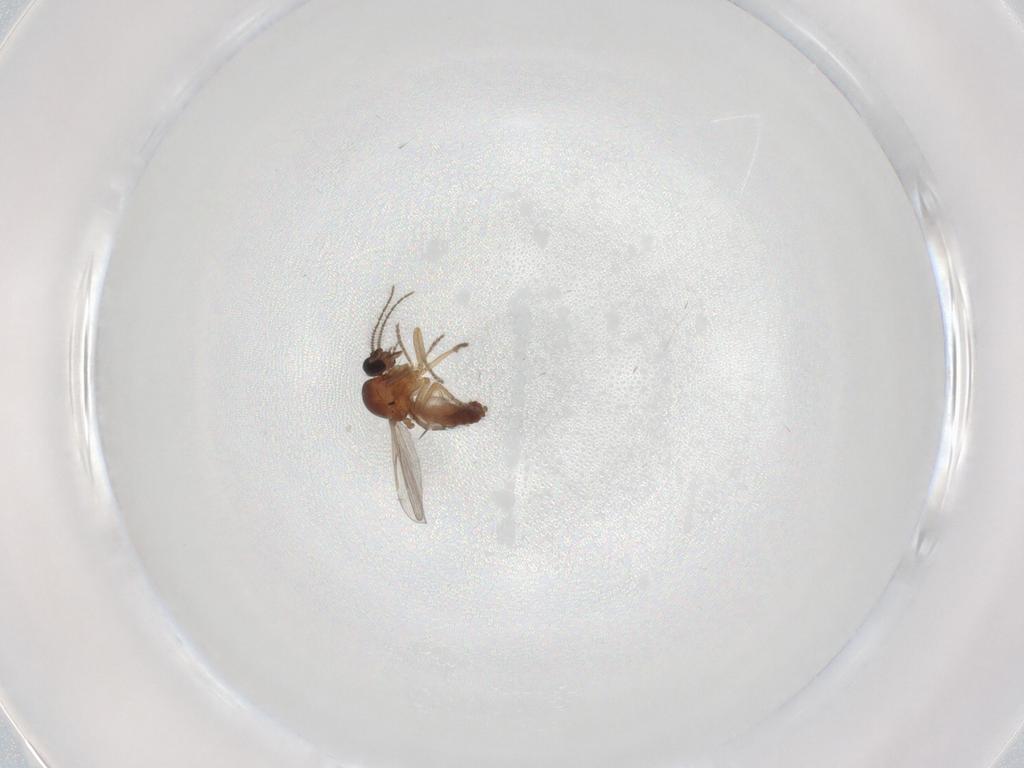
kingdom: Animalia
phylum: Arthropoda
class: Insecta
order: Diptera
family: Ceratopogonidae
